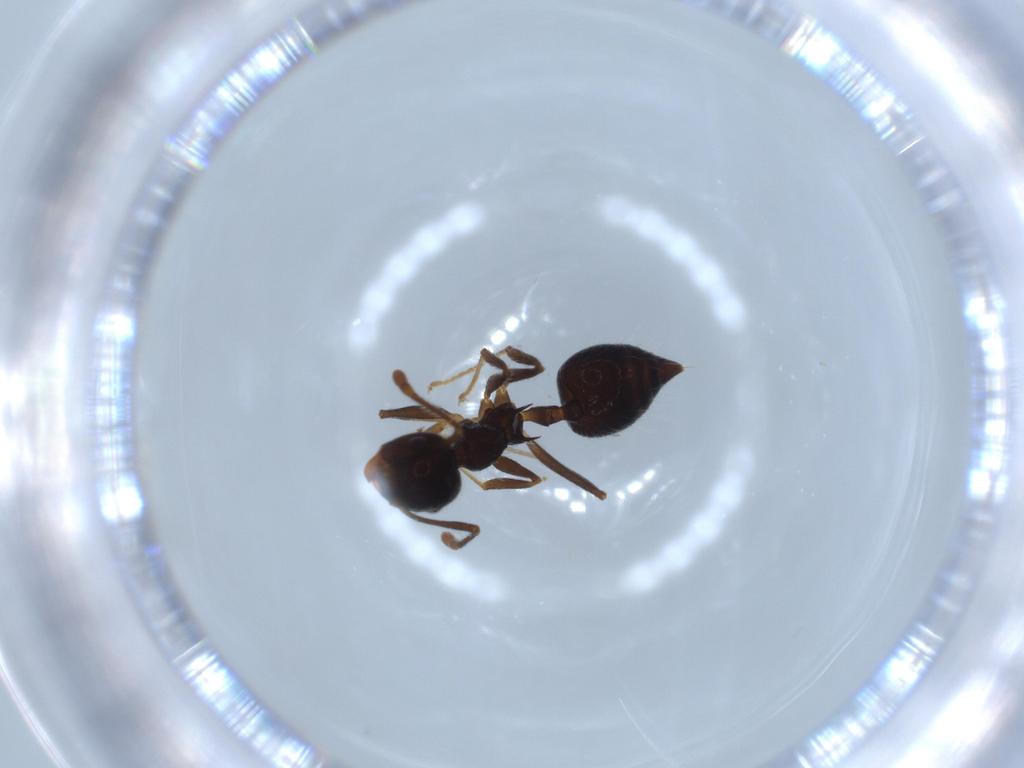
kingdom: Animalia
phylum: Arthropoda
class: Insecta
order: Hymenoptera
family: Formicidae
